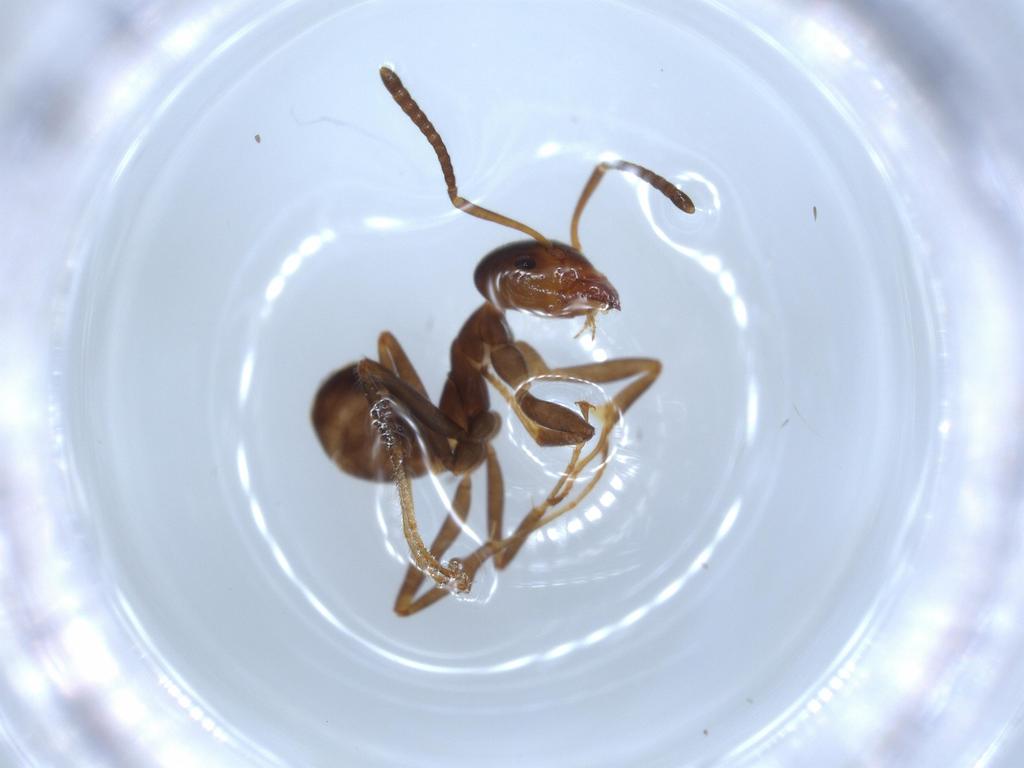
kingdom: Animalia
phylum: Arthropoda
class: Insecta
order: Hymenoptera
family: Formicidae
